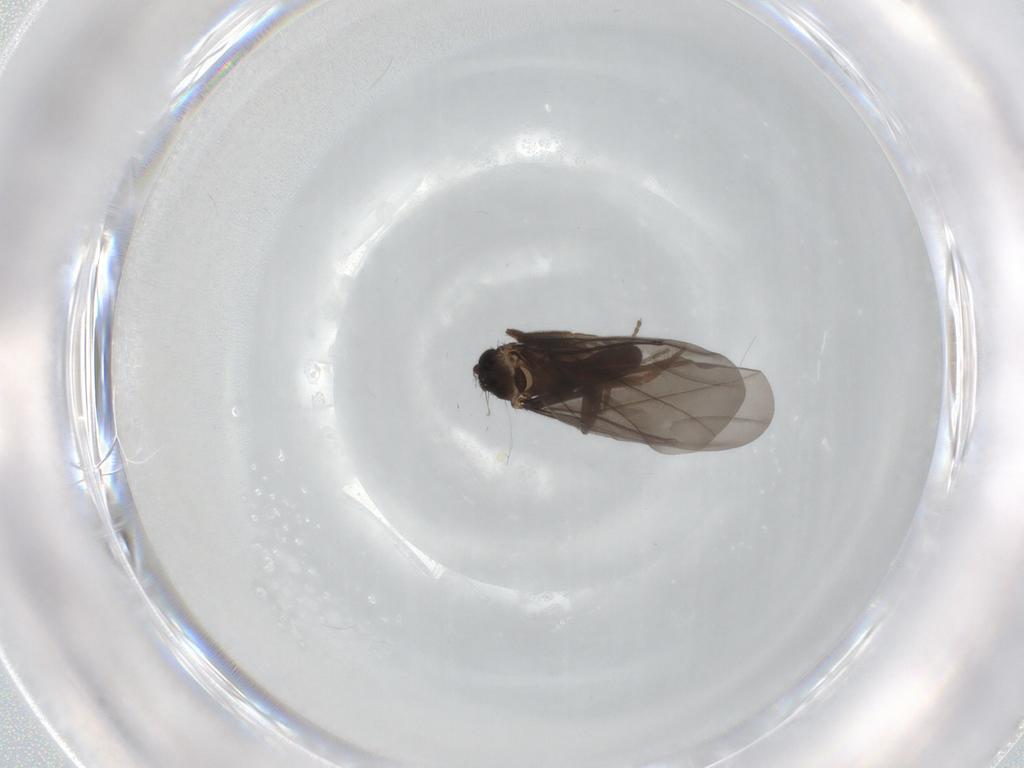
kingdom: Animalia
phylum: Arthropoda
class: Insecta
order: Diptera
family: Phoridae
